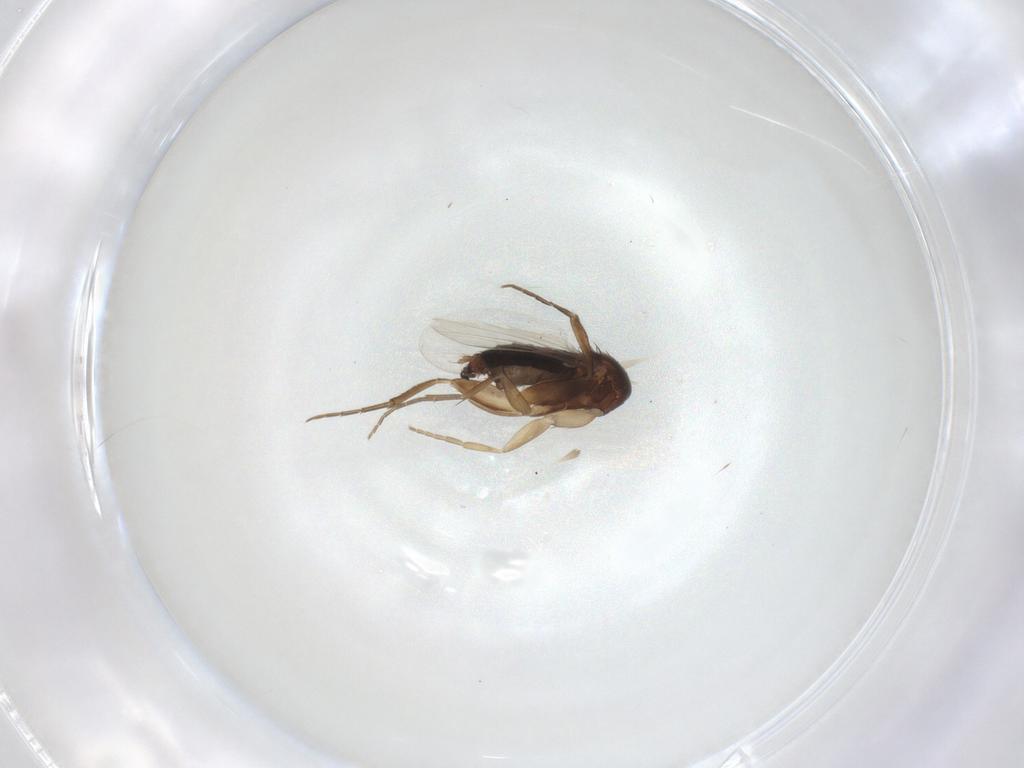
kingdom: Animalia
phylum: Arthropoda
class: Insecta
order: Diptera
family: Phoridae
